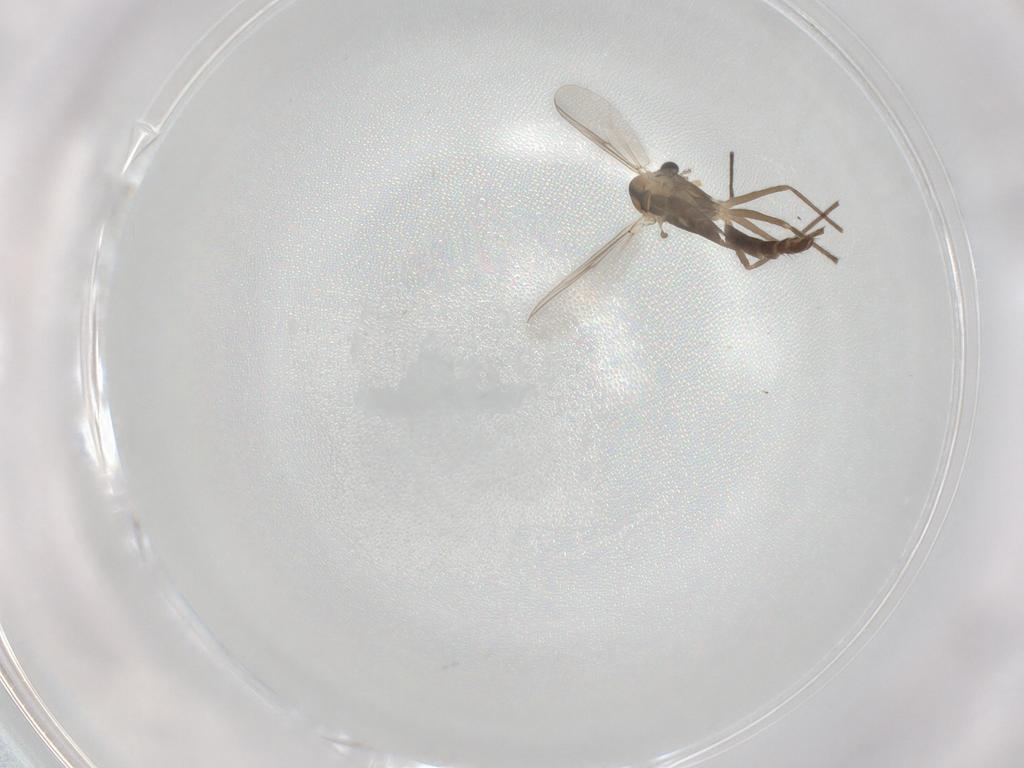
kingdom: Animalia
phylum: Arthropoda
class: Insecta
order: Diptera
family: Chironomidae
